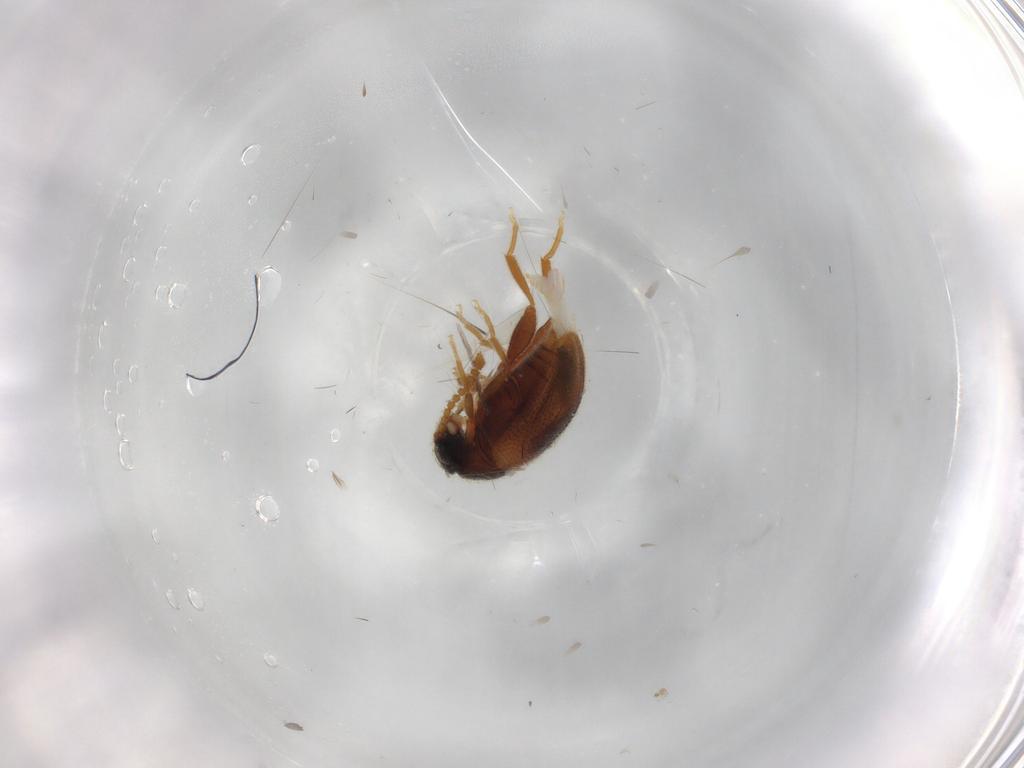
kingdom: Animalia
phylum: Arthropoda
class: Insecta
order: Coleoptera
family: Aderidae
